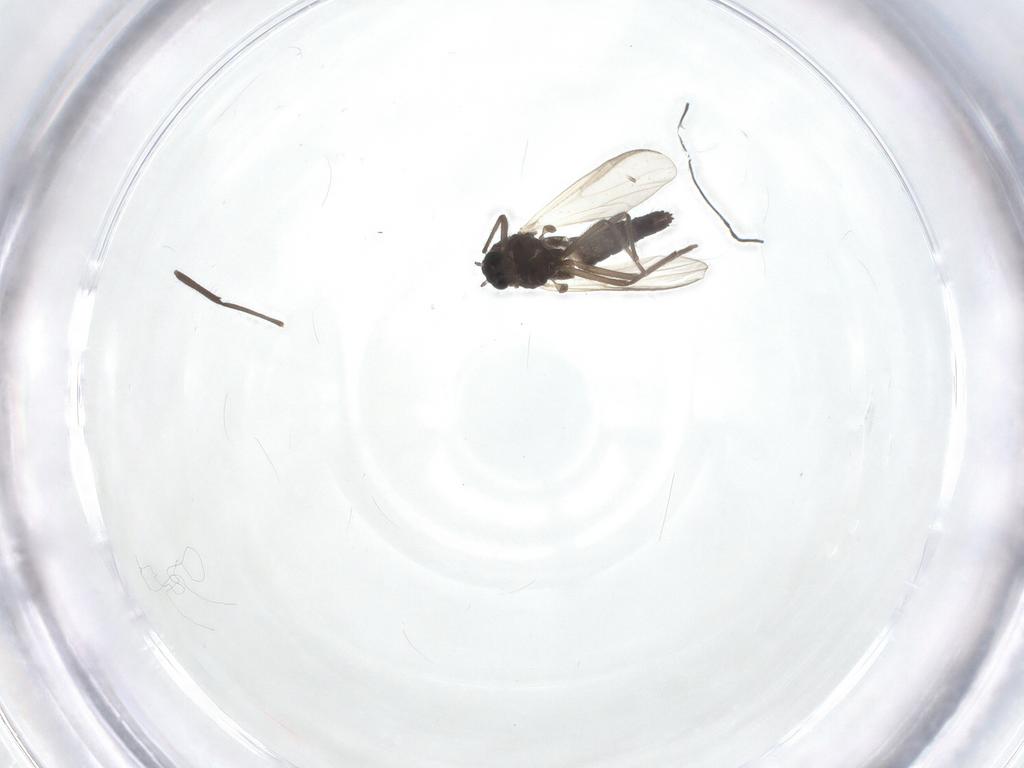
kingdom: Animalia
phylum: Arthropoda
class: Insecta
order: Diptera
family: Chironomidae
